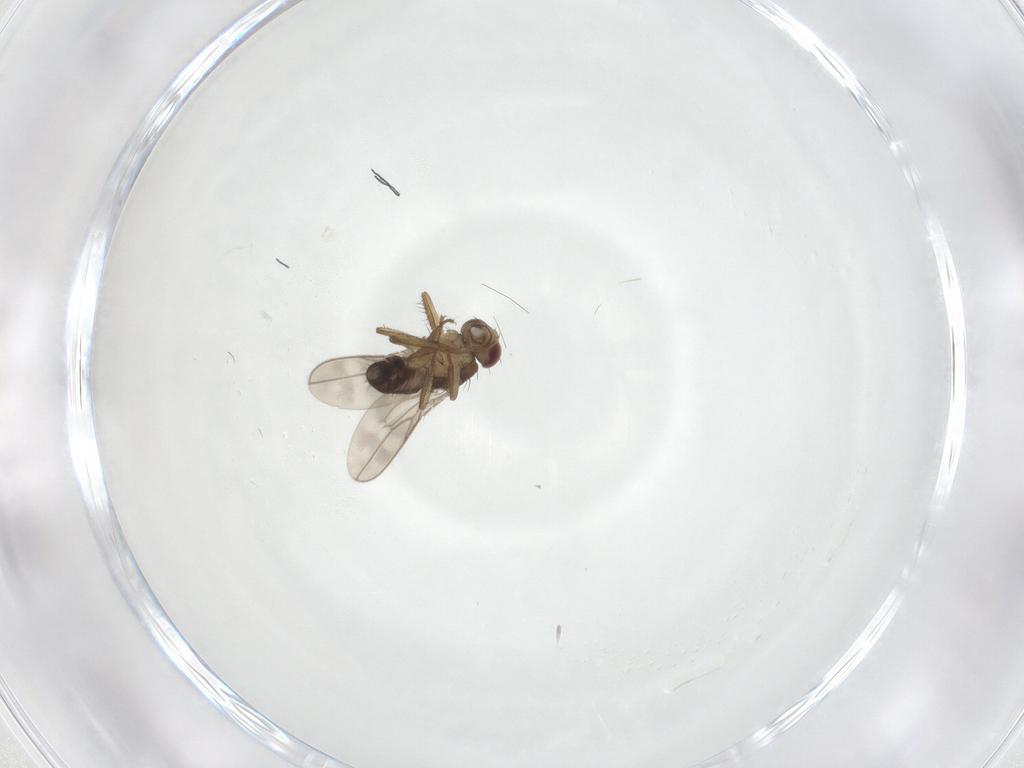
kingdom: Animalia
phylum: Arthropoda
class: Insecta
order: Diptera
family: Sphaeroceridae
